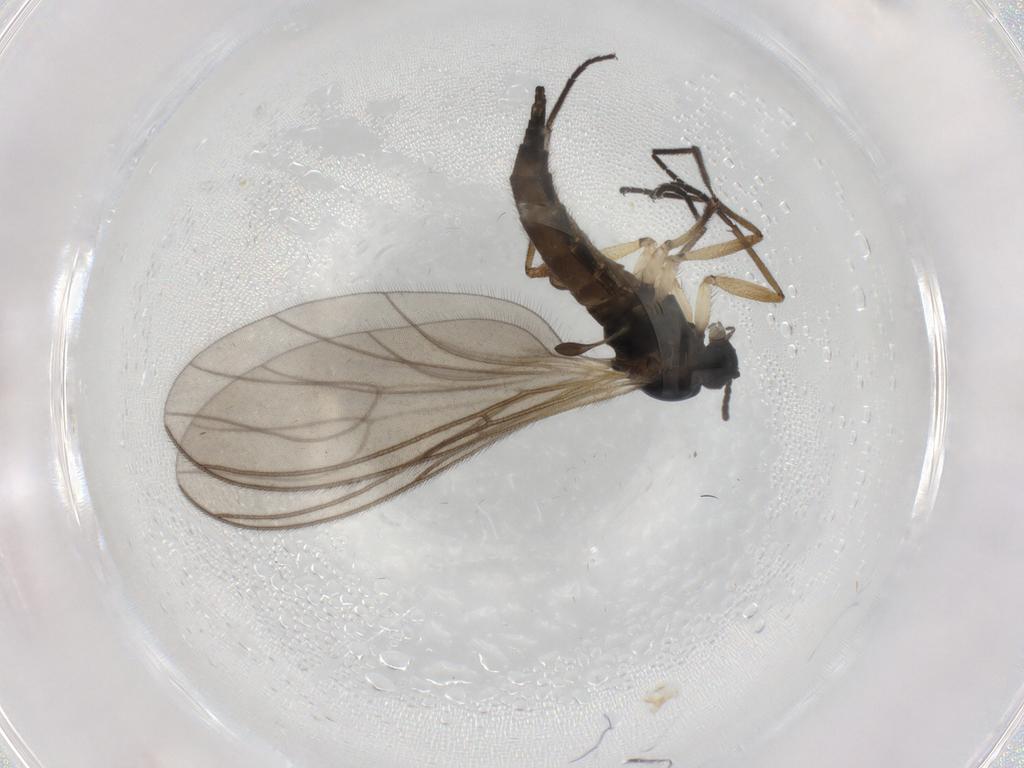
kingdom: Animalia
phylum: Arthropoda
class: Insecta
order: Diptera
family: Sciaridae
